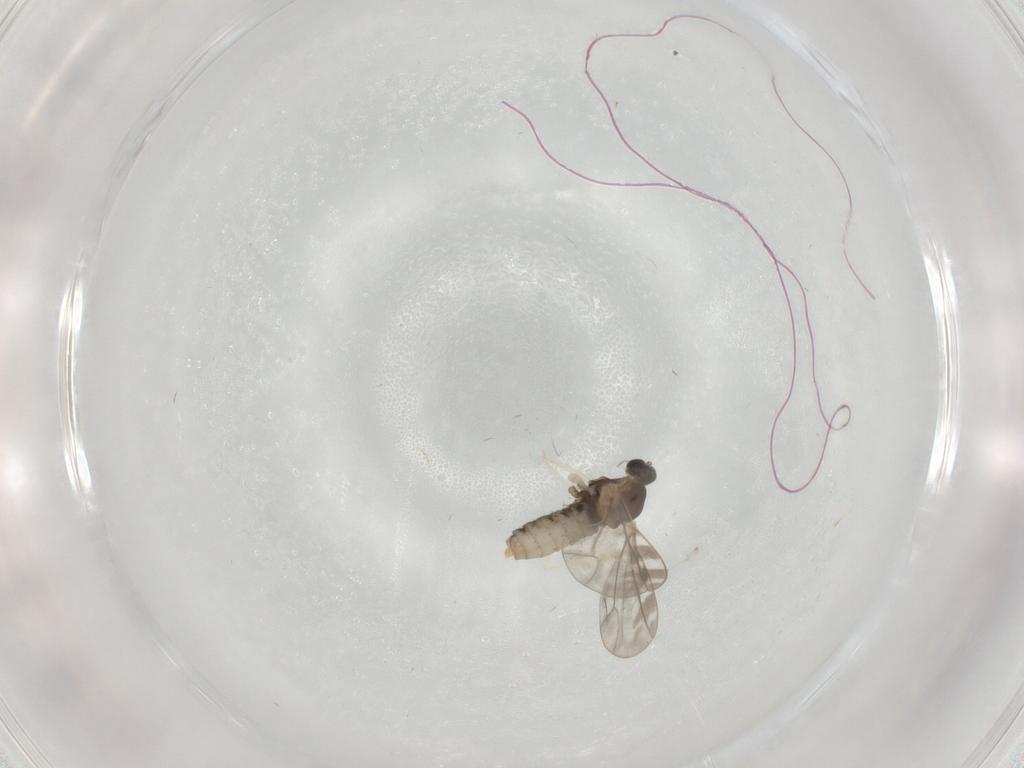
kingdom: Animalia
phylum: Arthropoda
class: Insecta
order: Diptera
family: Cecidomyiidae
